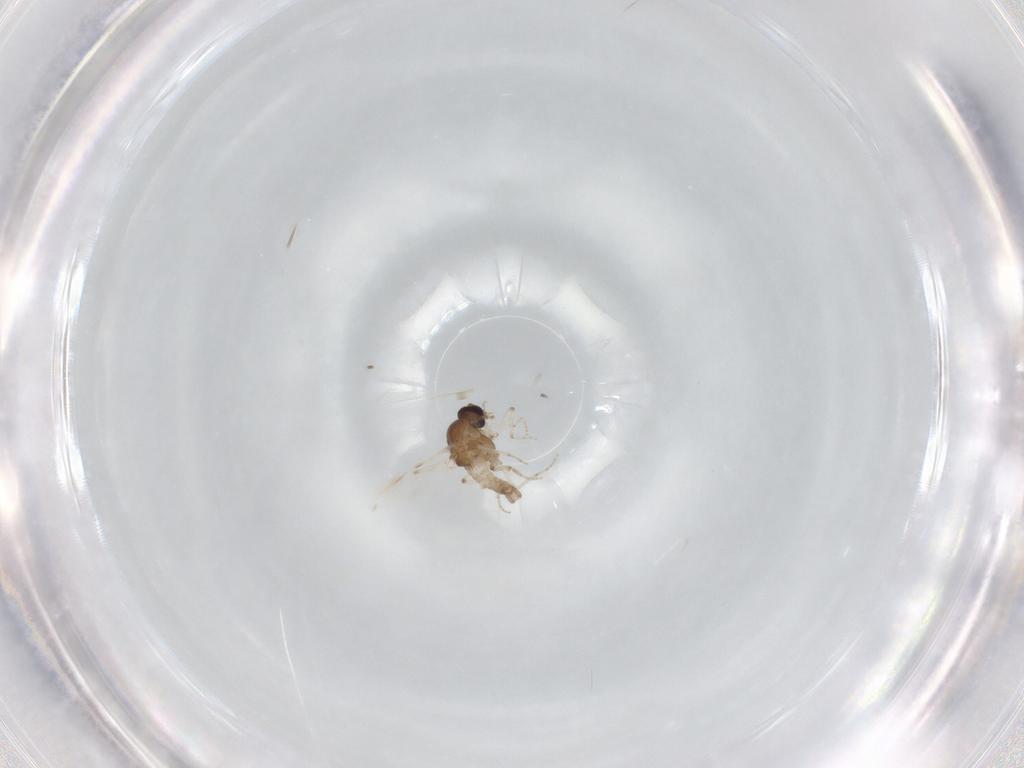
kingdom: Animalia
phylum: Arthropoda
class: Insecta
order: Diptera
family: Ceratopogonidae
